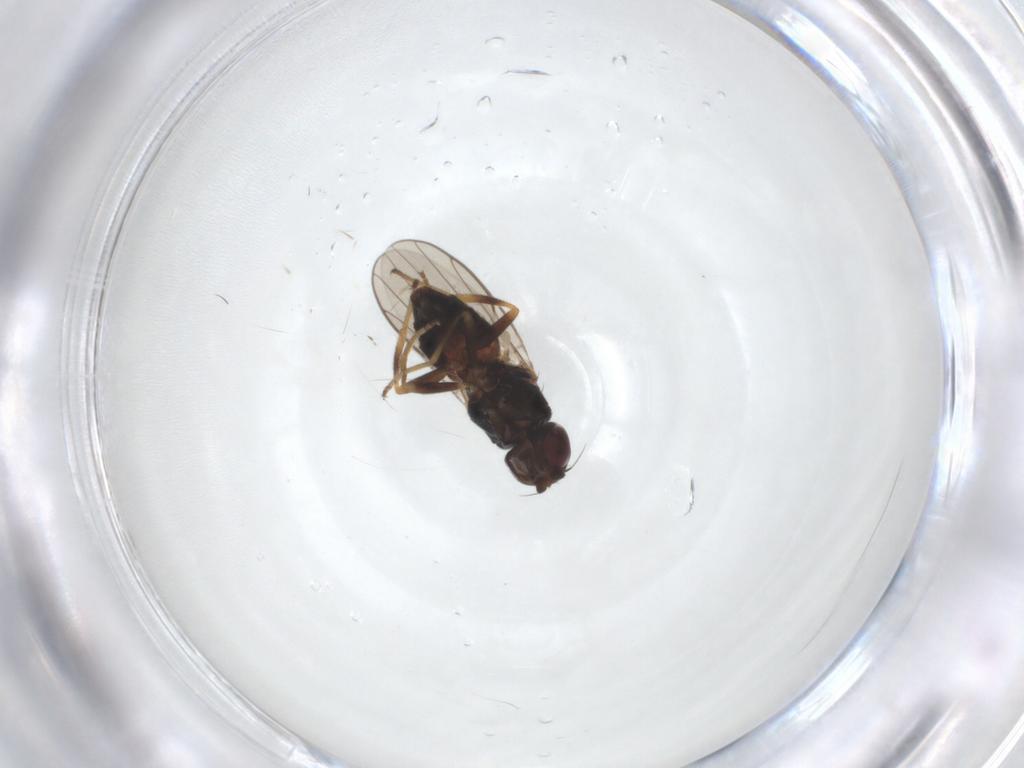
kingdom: Animalia
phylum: Arthropoda
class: Insecta
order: Diptera
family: Chloropidae
